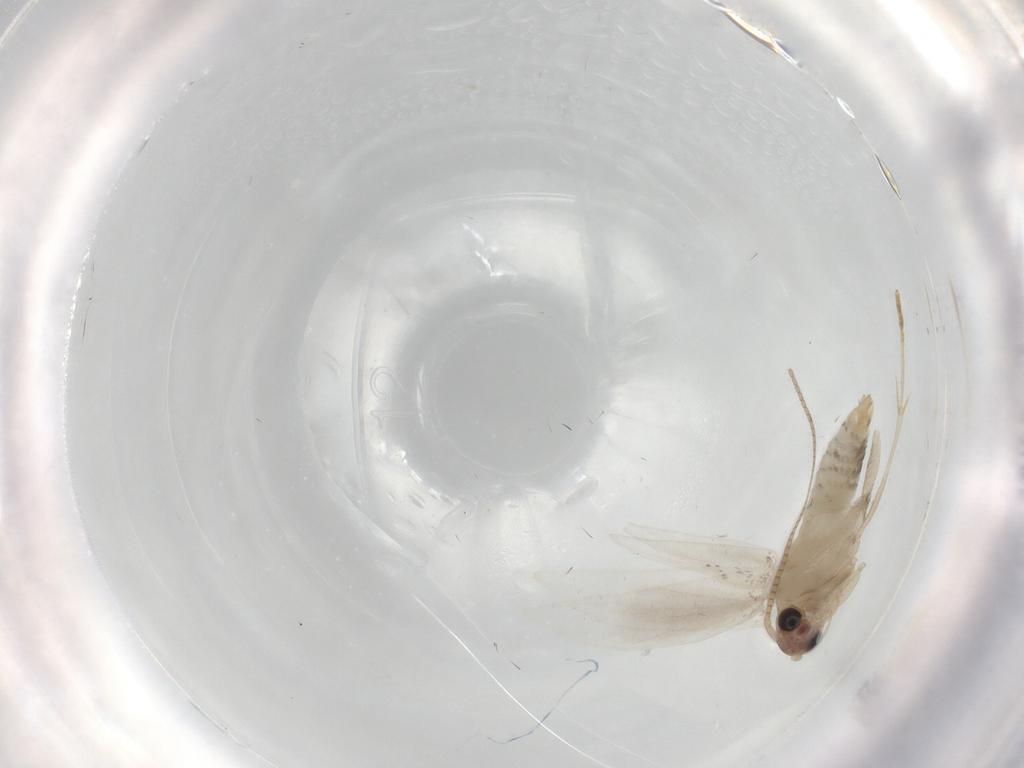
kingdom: Animalia
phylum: Arthropoda
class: Insecta
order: Lepidoptera
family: Tineidae
